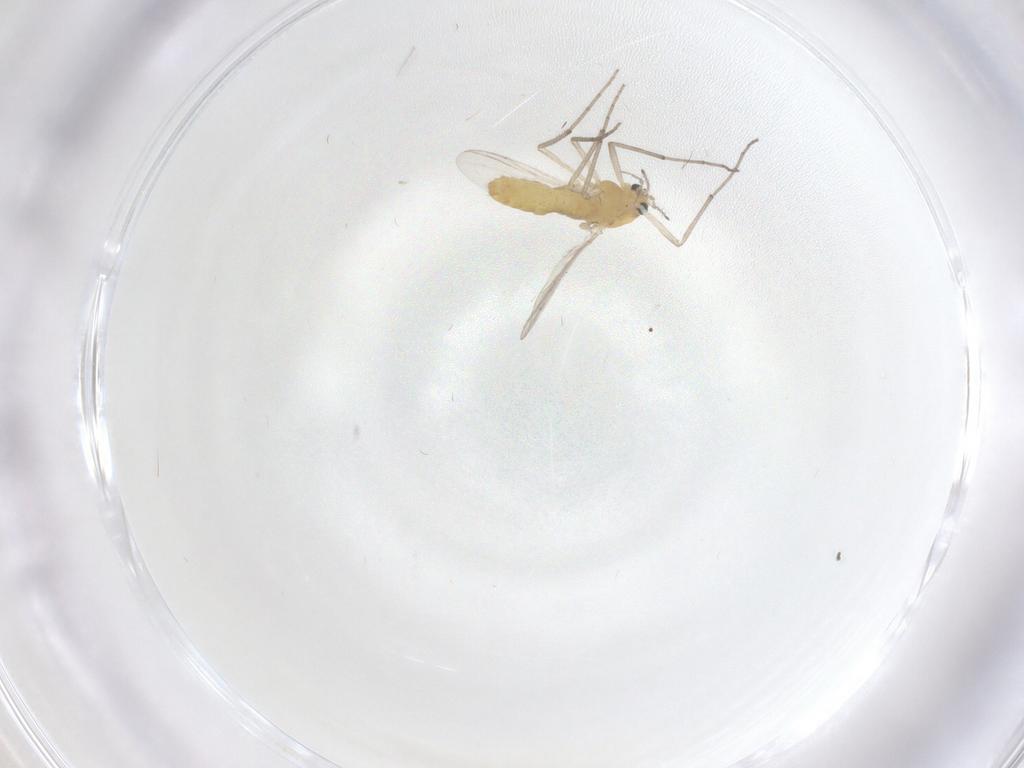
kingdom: Animalia
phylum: Arthropoda
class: Insecta
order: Diptera
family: Chironomidae
